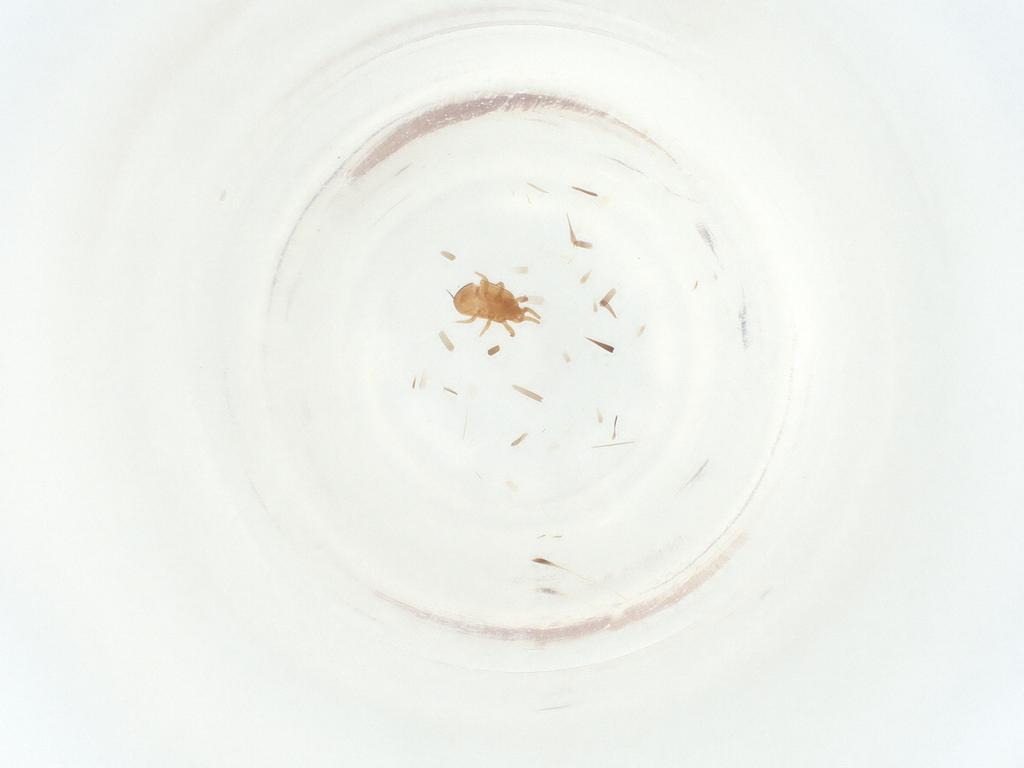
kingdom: Animalia
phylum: Arthropoda
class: Arachnida
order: Mesostigmata
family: Urodinychidae
